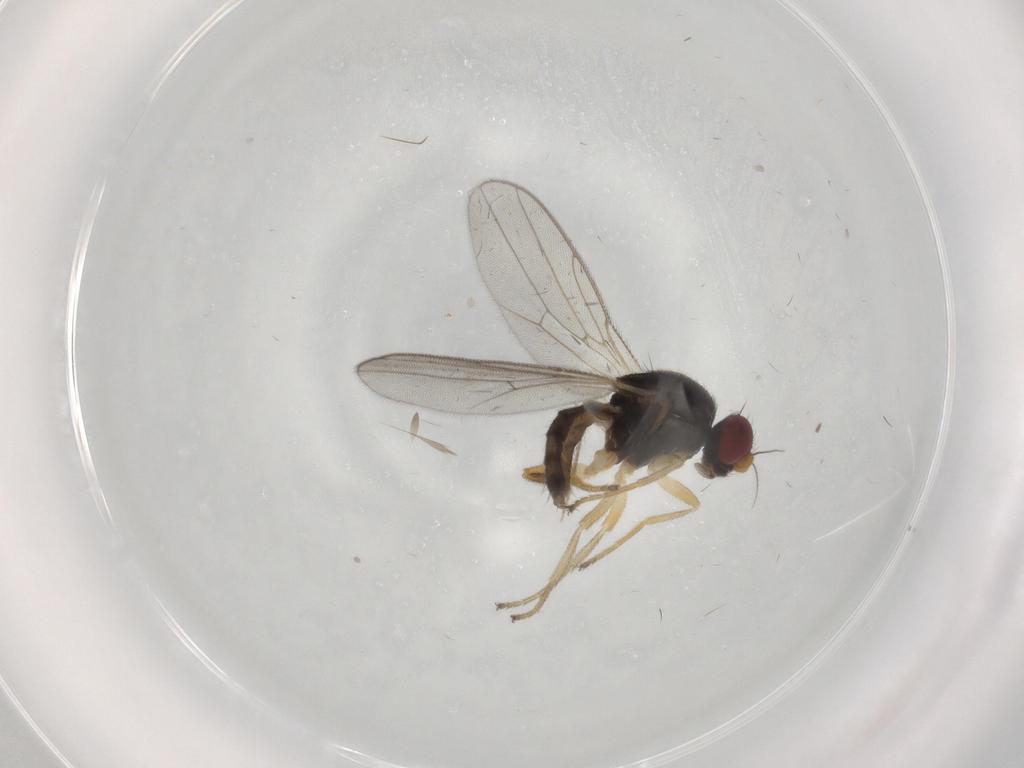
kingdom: Animalia
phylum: Arthropoda
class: Insecta
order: Diptera
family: Chloropidae
